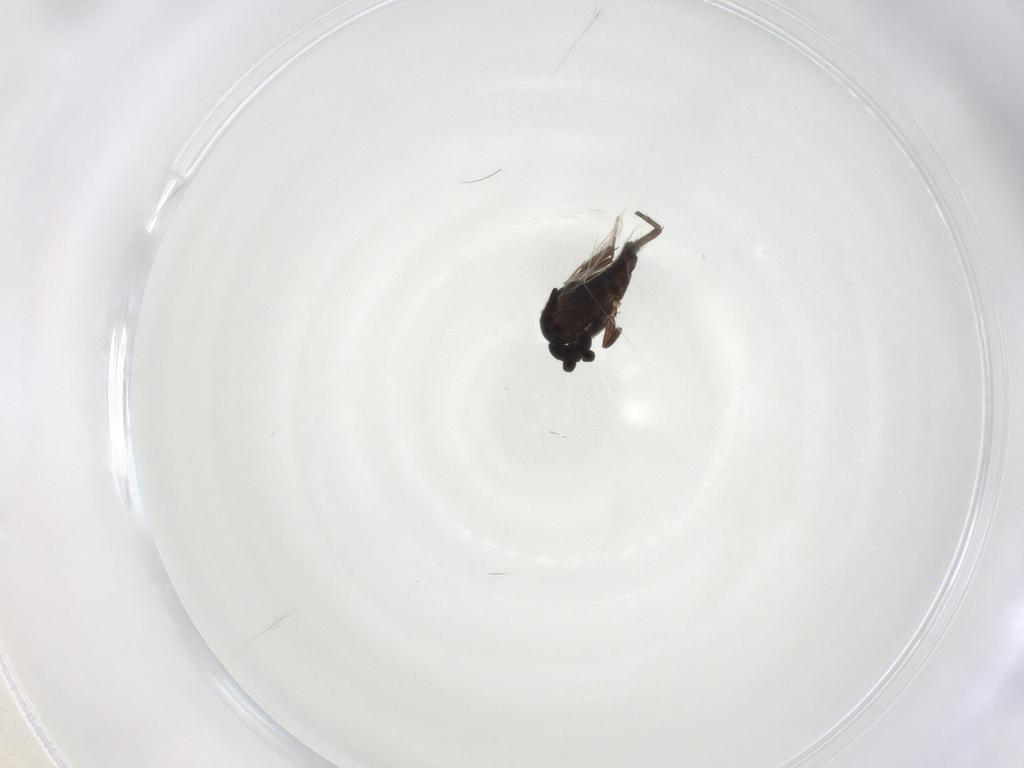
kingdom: Animalia
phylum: Arthropoda
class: Insecta
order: Diptera
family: Phoridae
